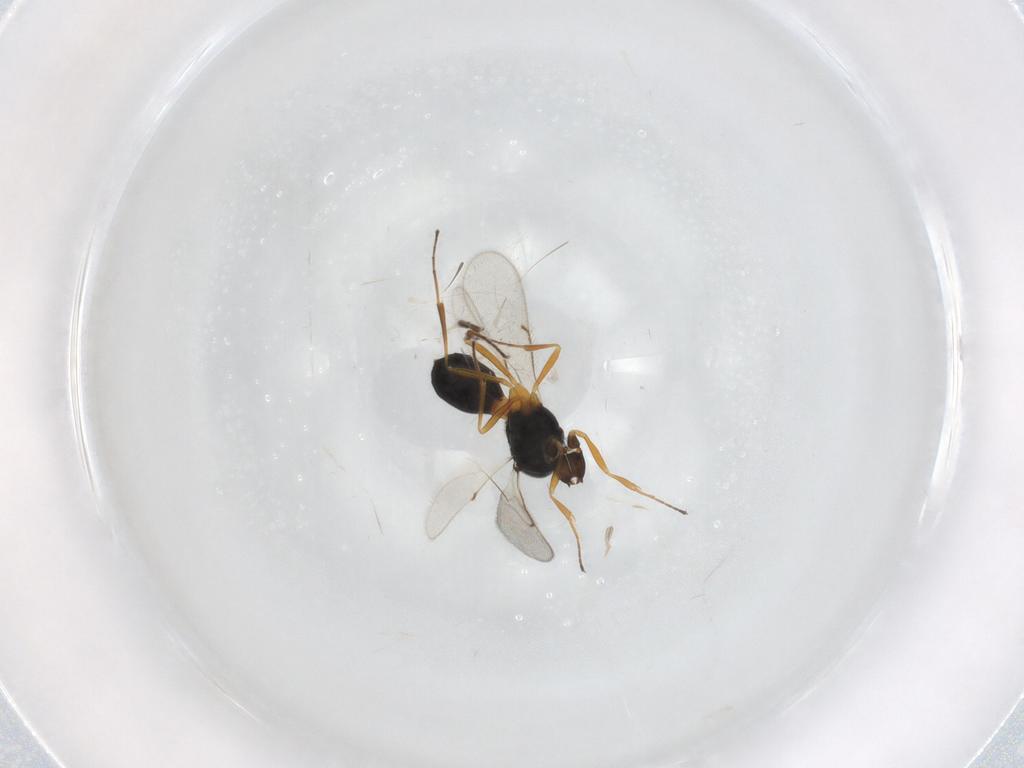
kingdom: Animalia
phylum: Arthropoda
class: Insecta
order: Hymenoptera
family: Scelionidae
